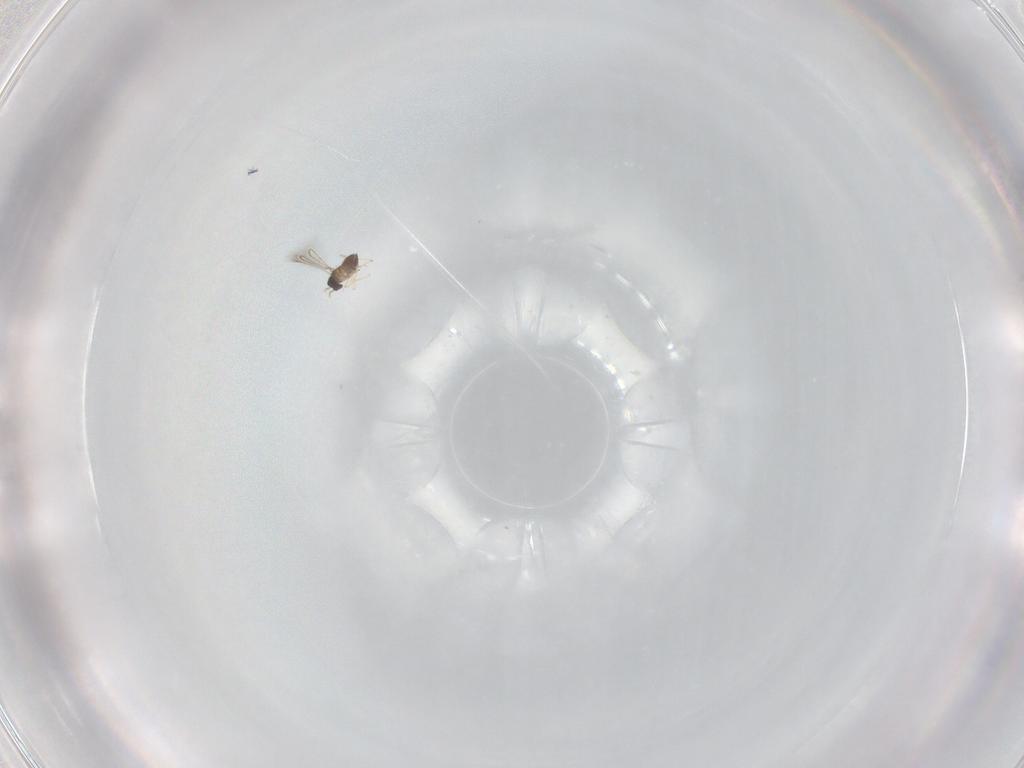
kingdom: Animalia
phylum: Arthropoda
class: Insecta
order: Hymenoptera
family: Ichneumonidae
